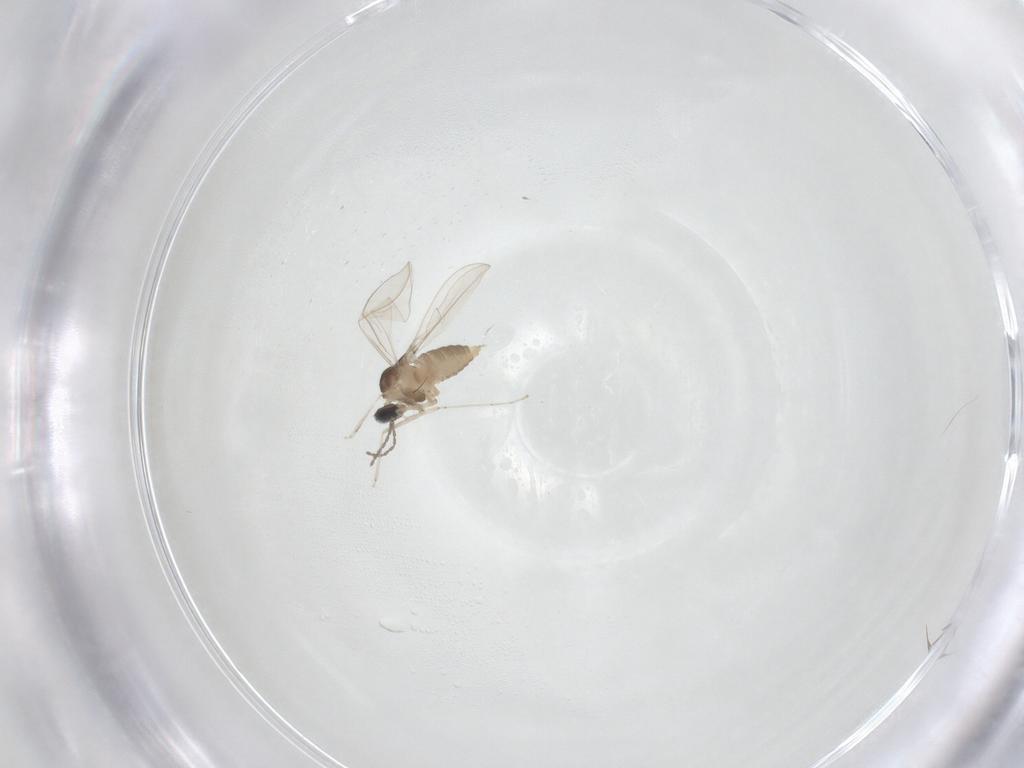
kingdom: Animalia
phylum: Arthropoda
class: Insecta
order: Diptera
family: Cecidomyiidae
